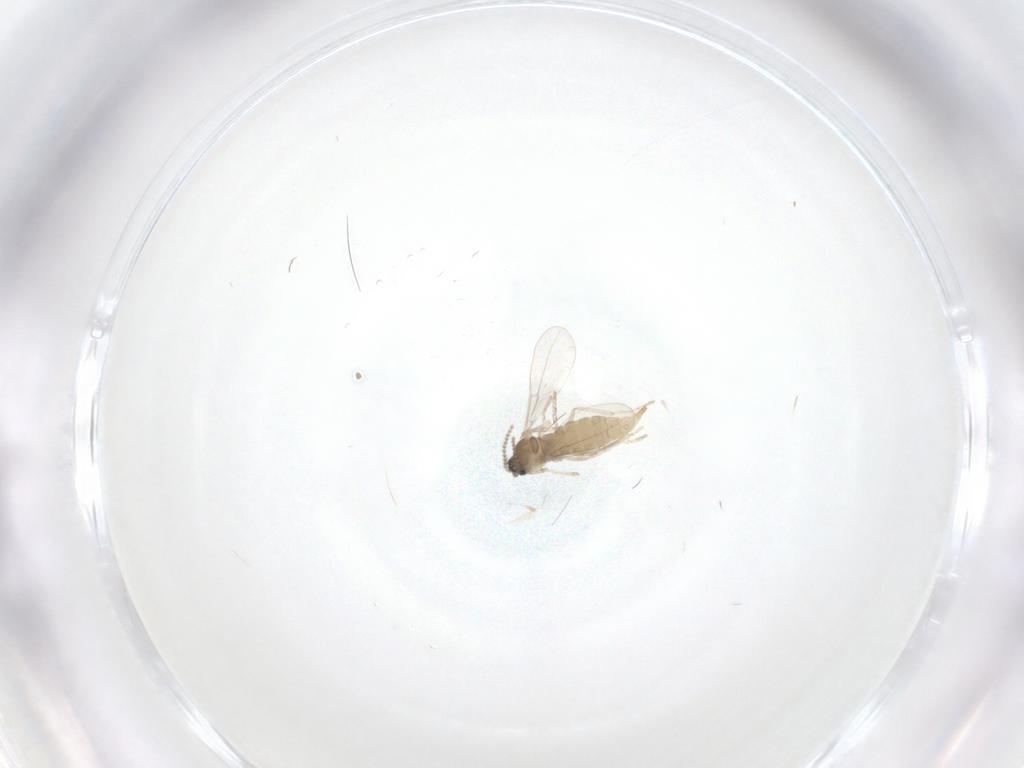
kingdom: Animalia
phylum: Arthropoda
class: Insecta
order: Diptera
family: Cecidomyiidae
